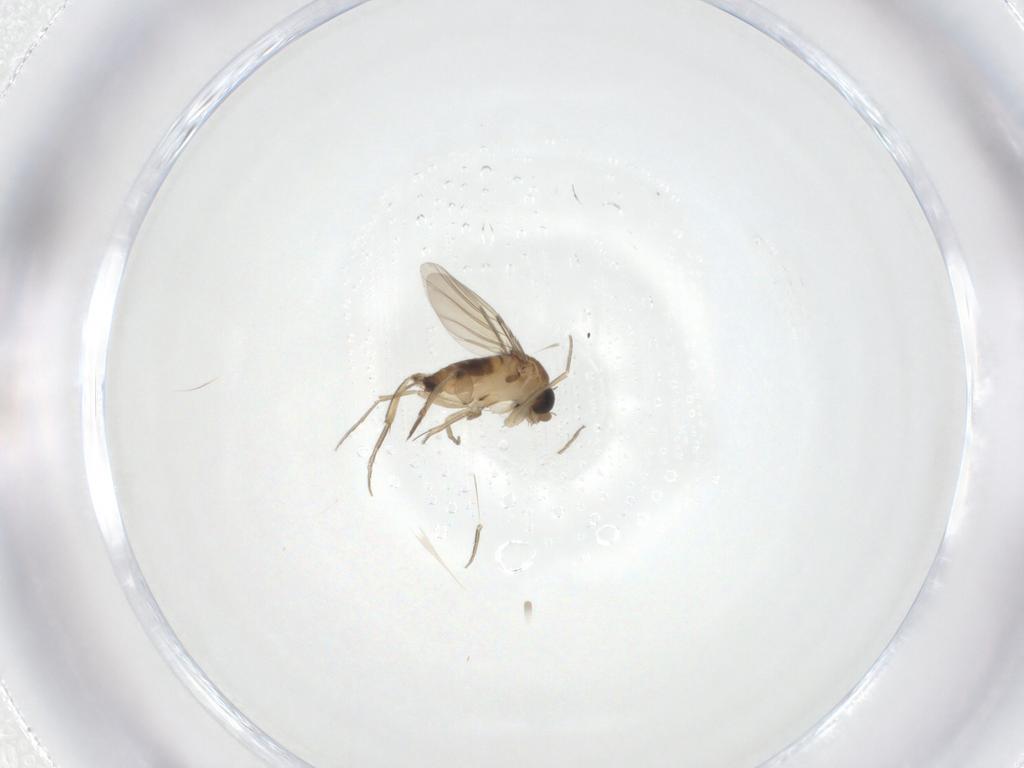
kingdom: Animalia
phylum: Arthropoda
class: Insecta
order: Diptera
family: Phoridae
